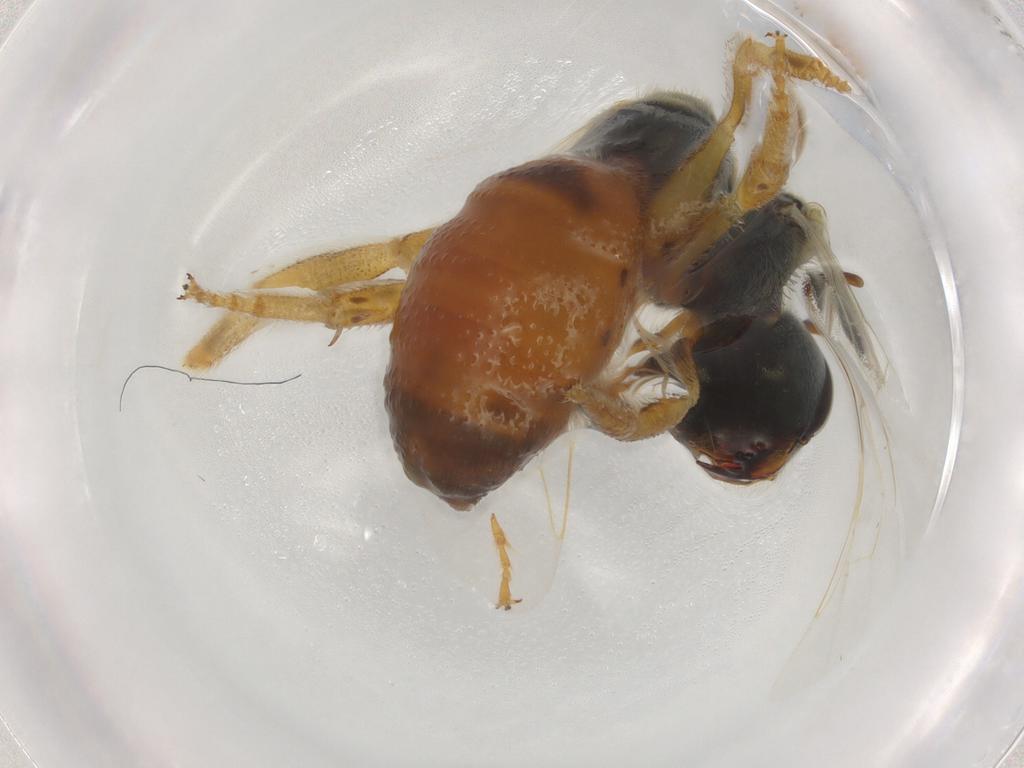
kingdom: Animalia
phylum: Arthropoda
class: Insecta
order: Hymenoptera
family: Halictidae
